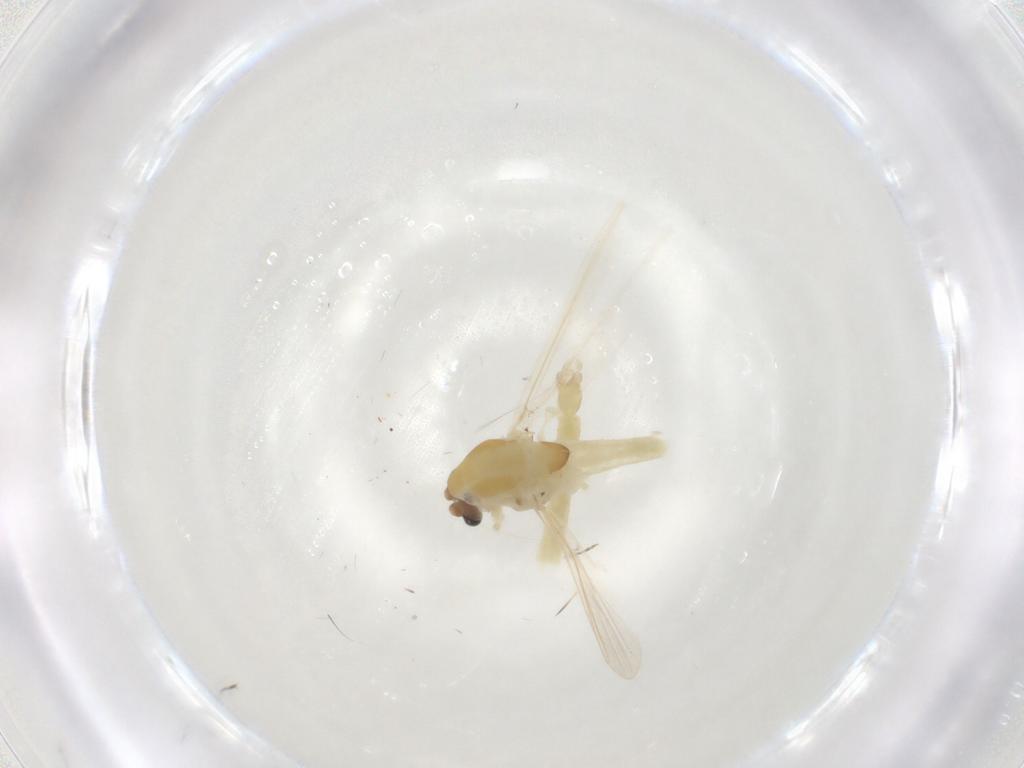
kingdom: Animalia
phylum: Arthropoda
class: Insecta
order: Diptera
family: Chironomidae
